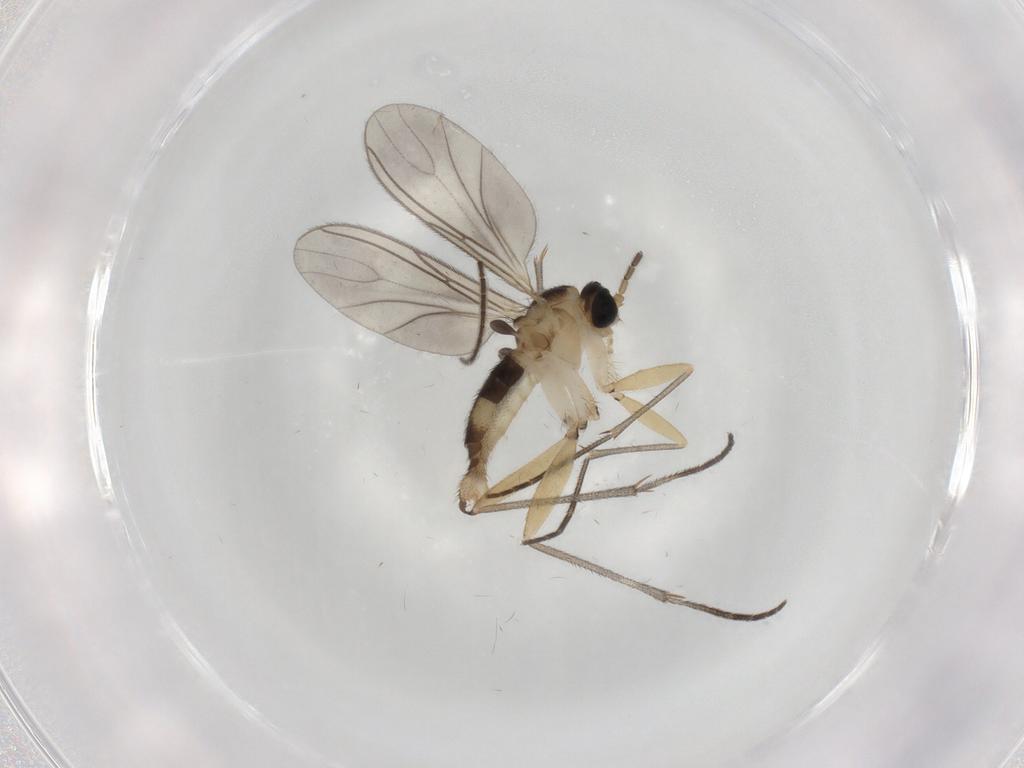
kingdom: Animalia
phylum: Arthropoda
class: Insecta
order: Diptera
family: Sciaridae
